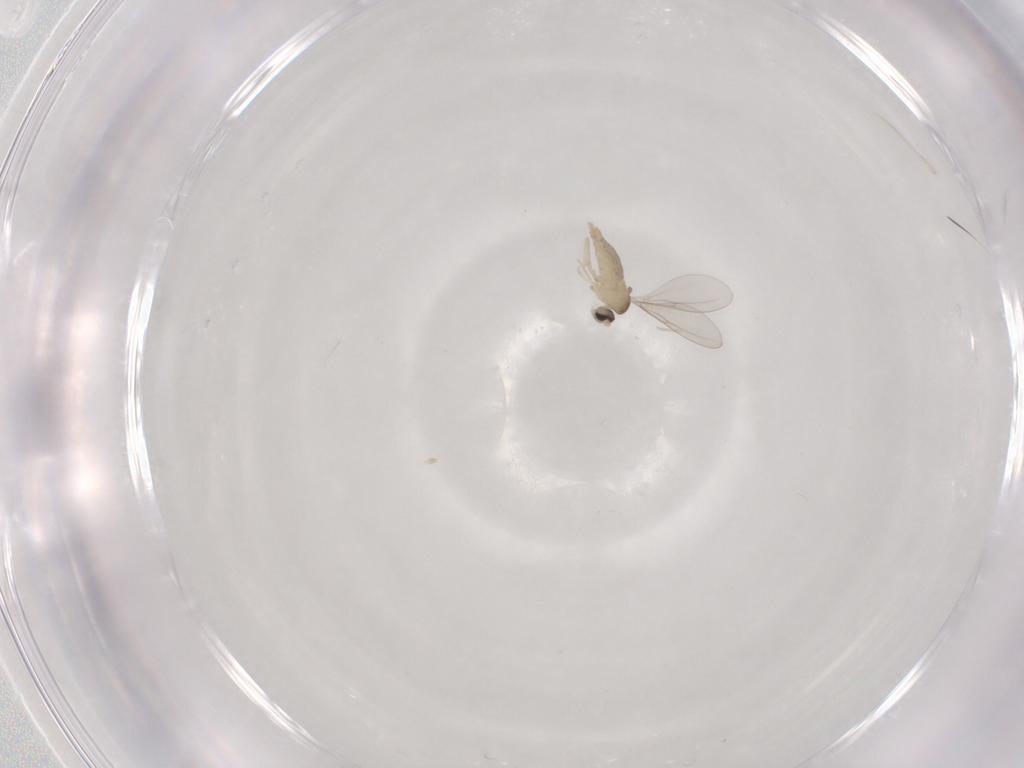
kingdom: Animalia
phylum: Arthropoda
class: Insecta
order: Diptera
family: Cecidomyiidae
